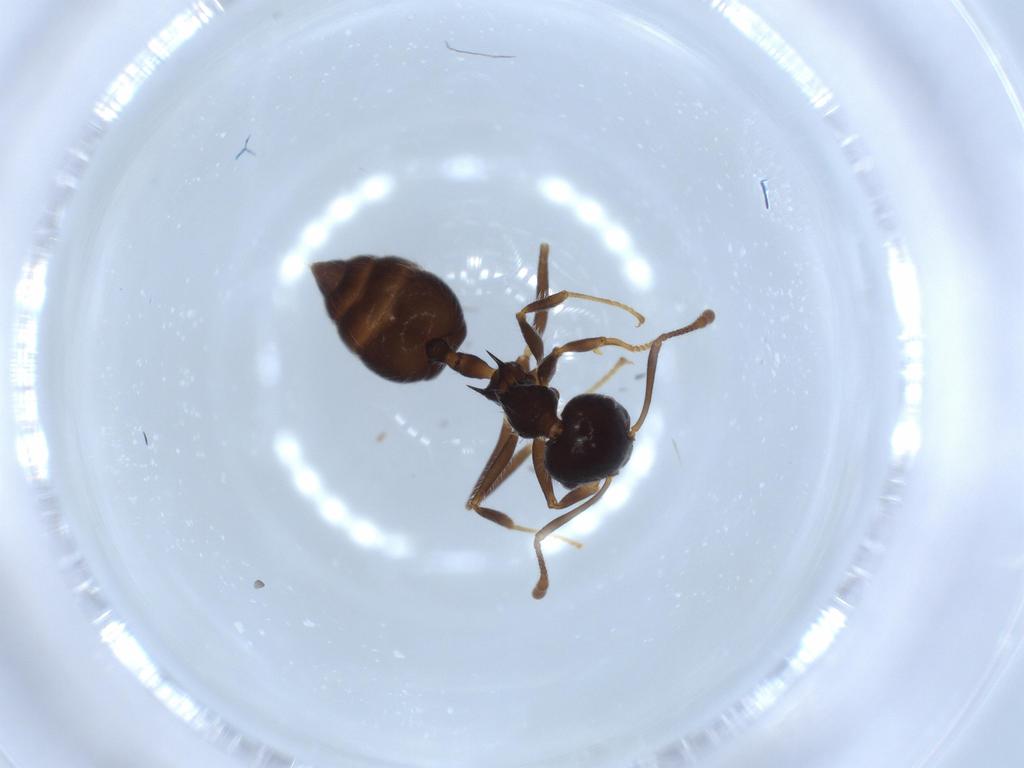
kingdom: Animalia
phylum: Arthropoda
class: Insecta
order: Hymenoptera
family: Formicidae
